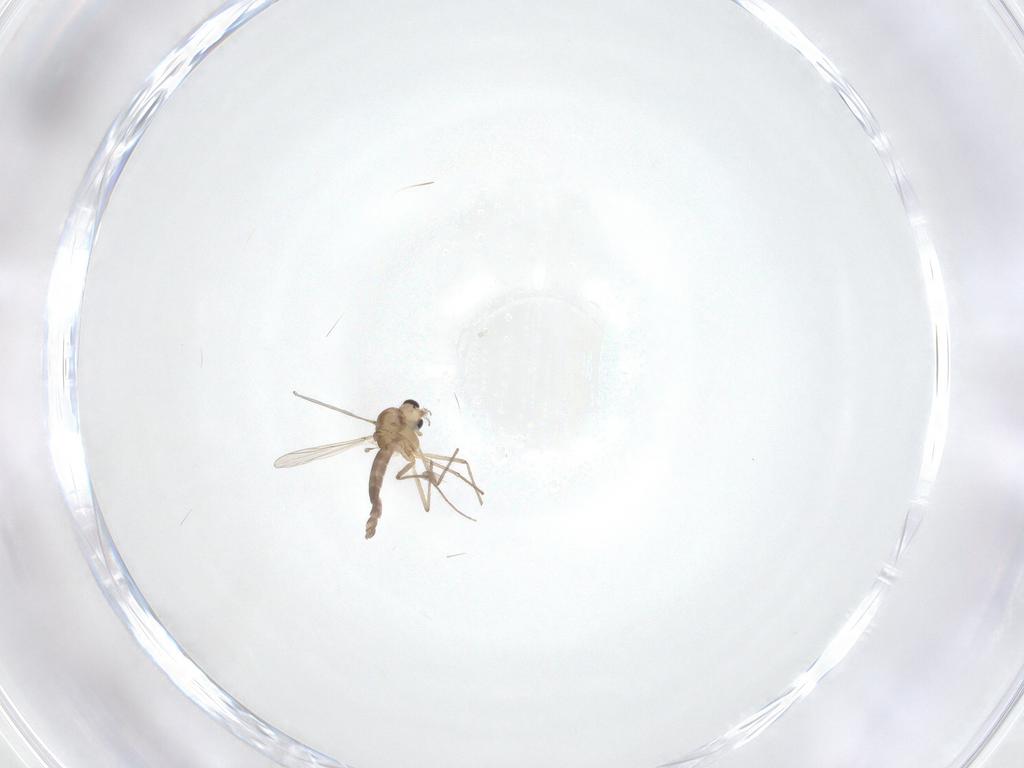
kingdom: Animalia
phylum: Arthropoda
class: Insecta
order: Diptera
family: Chironomidae
